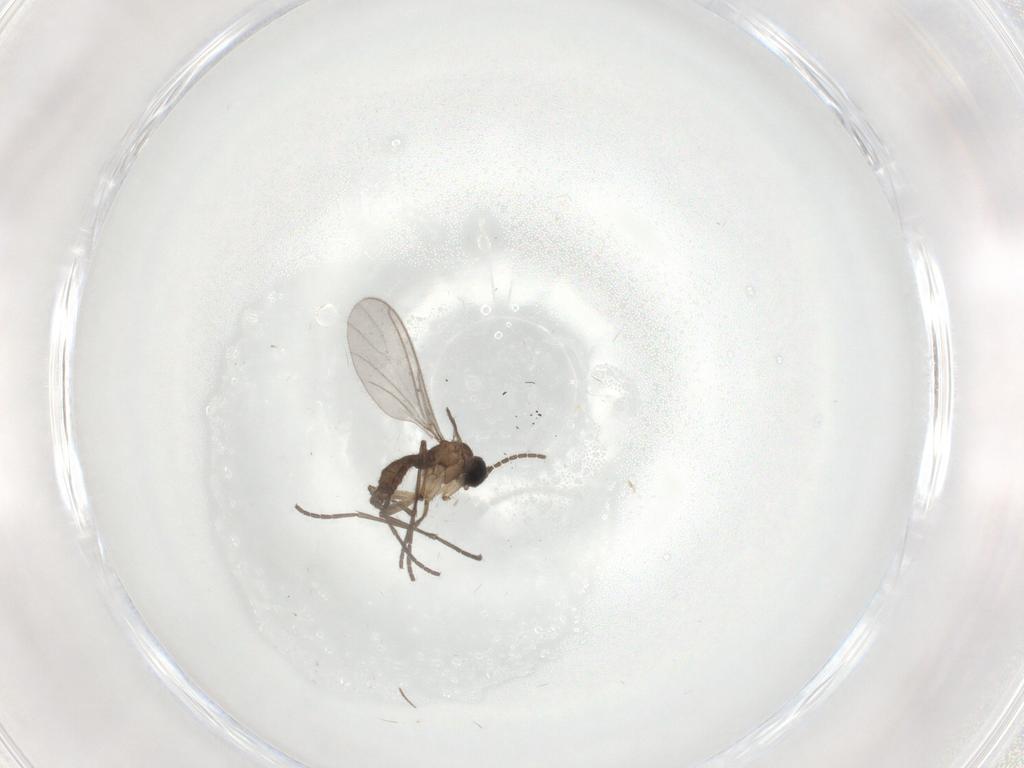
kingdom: Animalia
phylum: Arthropoda
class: Insecta
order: Diptera
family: Sciaridae
